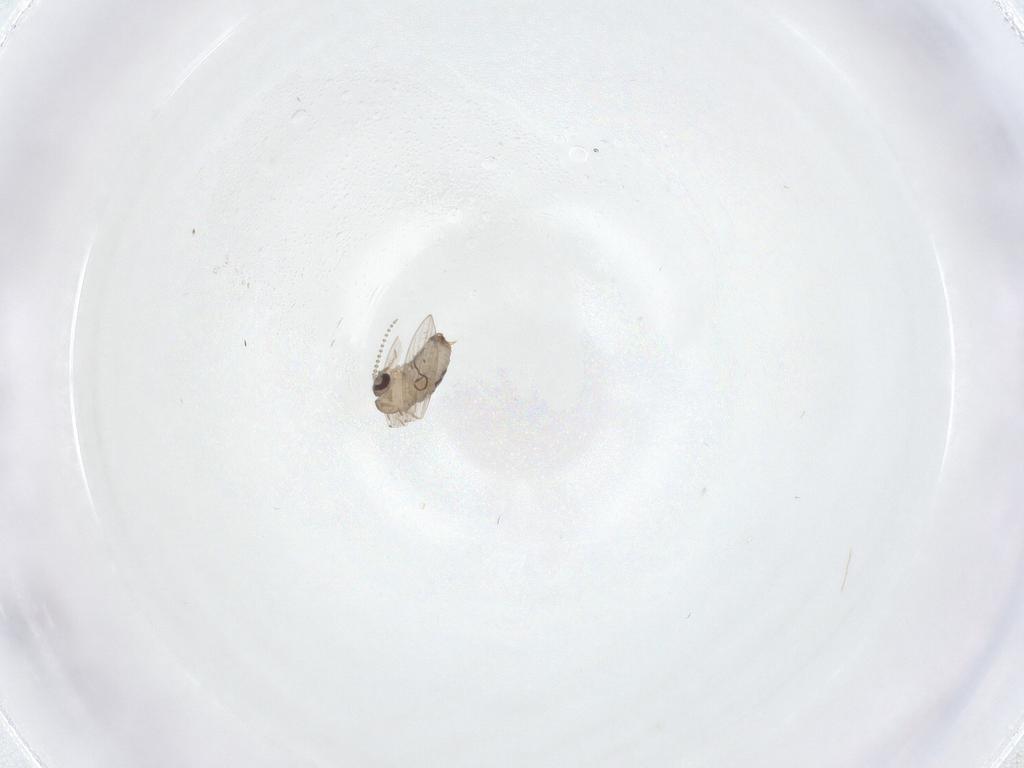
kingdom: Animalia
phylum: Arthropoda
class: Insecta
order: Diptera
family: Psychodidae
